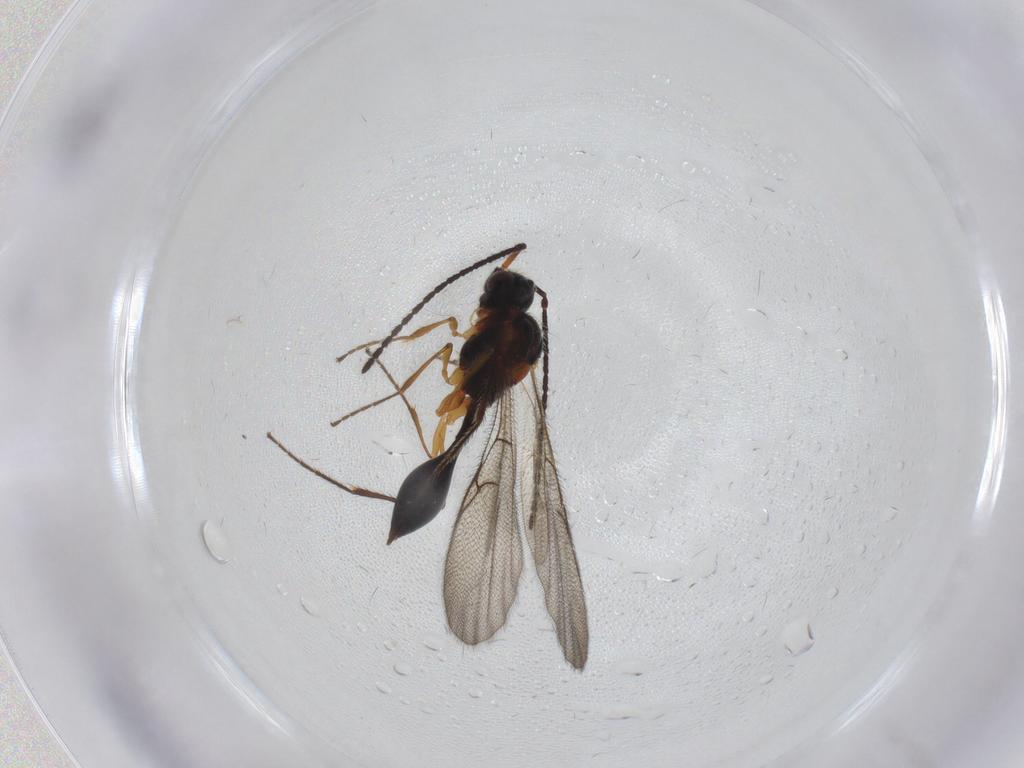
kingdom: Animalia
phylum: Arthropoda
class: Insecta
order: Hymenoptera
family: Diapriidae
